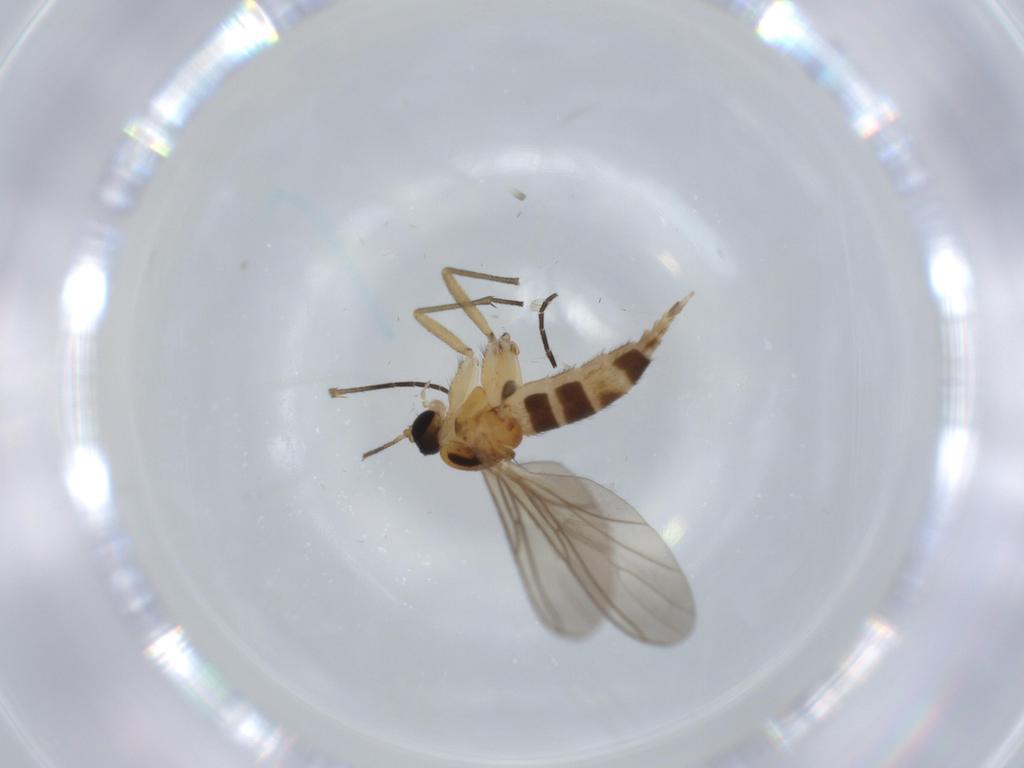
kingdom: Animalia
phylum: Arthropoda
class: Insecta
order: Diptera
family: Sciaridae
